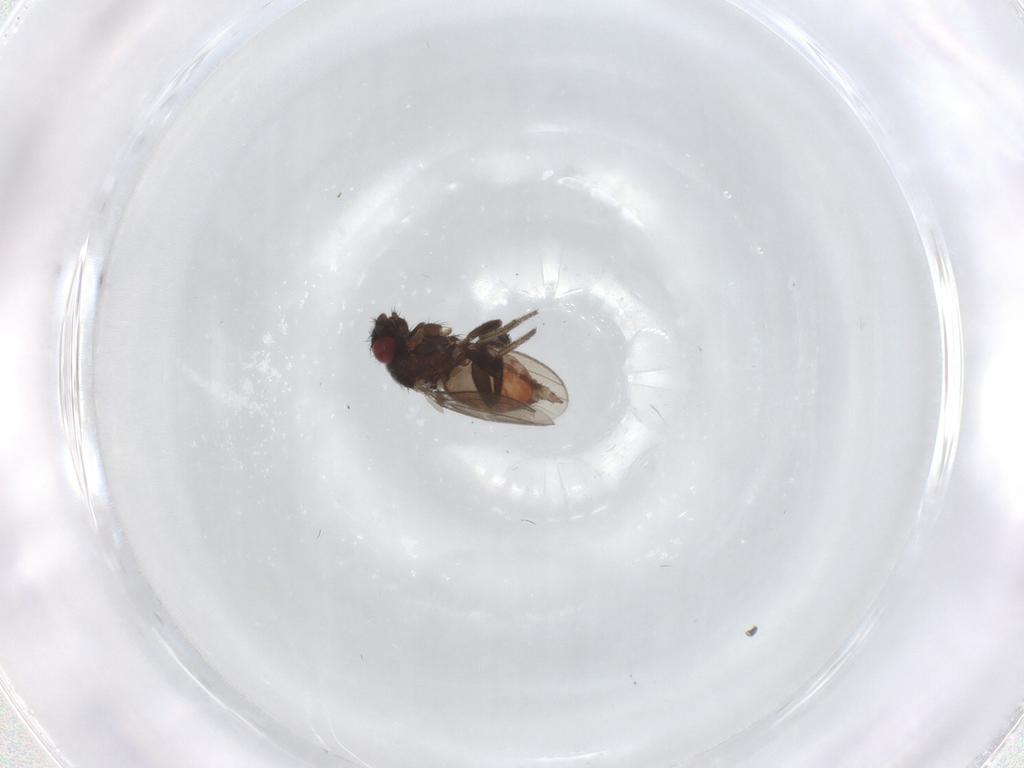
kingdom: Animalia
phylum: Arthropoda
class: Insecta
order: Diptera
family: Milichiidae
